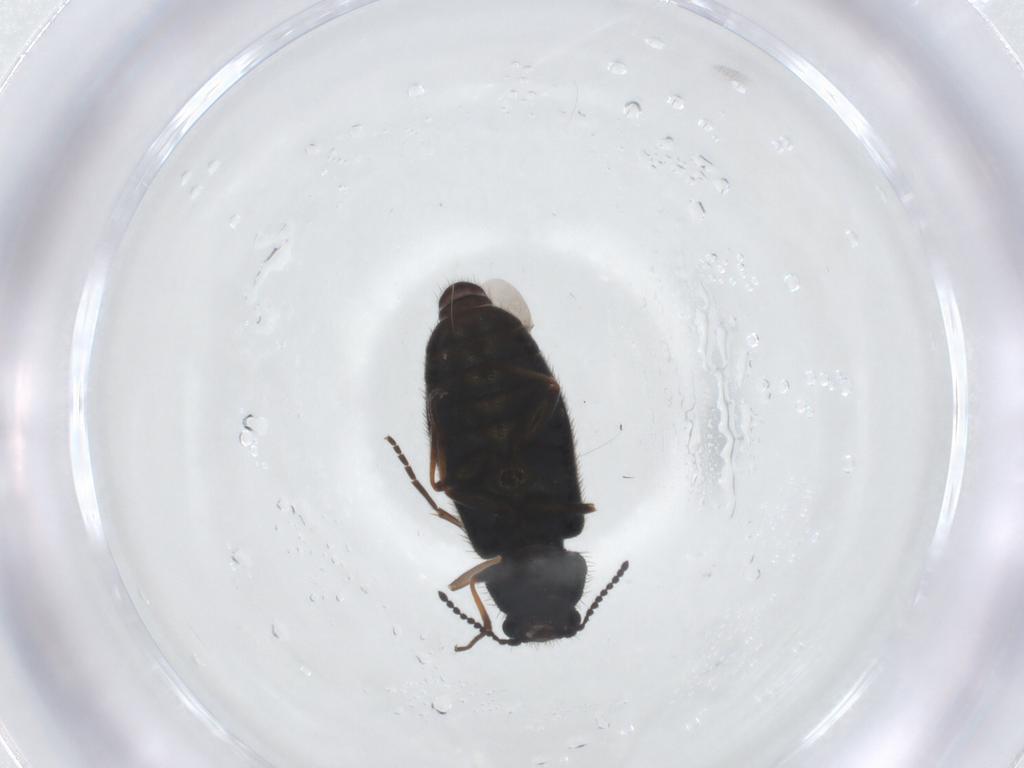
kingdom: Animalia
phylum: Arthropoda
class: Insecta
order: Coleoptera
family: Melyridae
